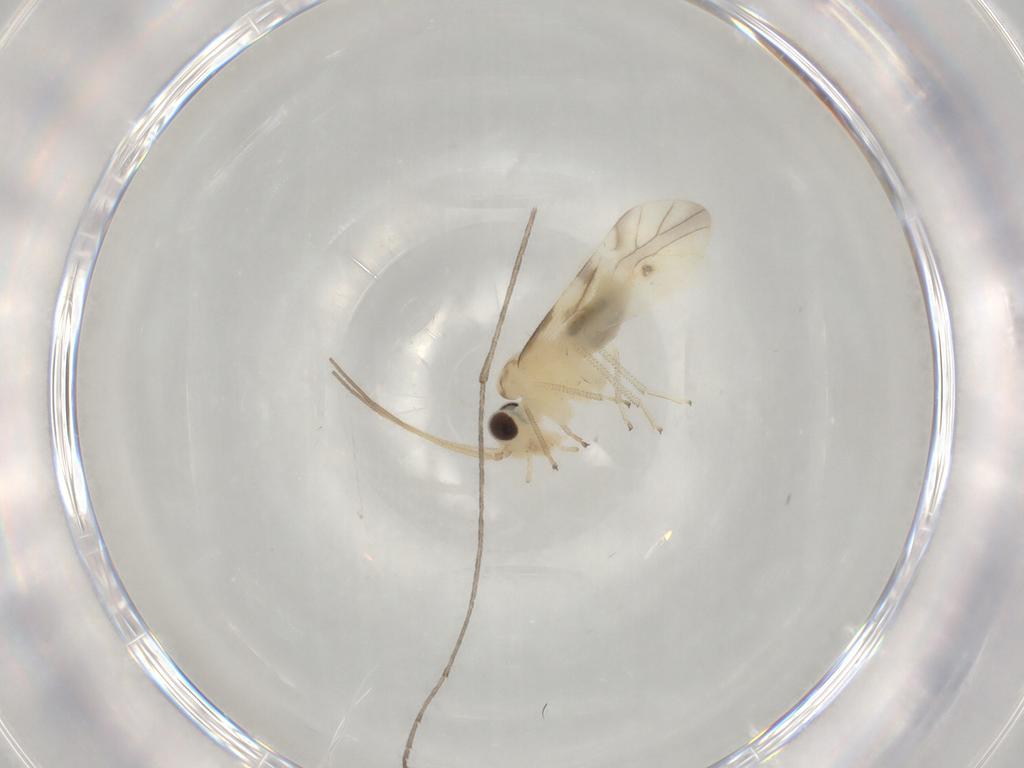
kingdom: Animalia
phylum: Arthropoda
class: Insecta
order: Psocodea
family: Caeciliusidae
